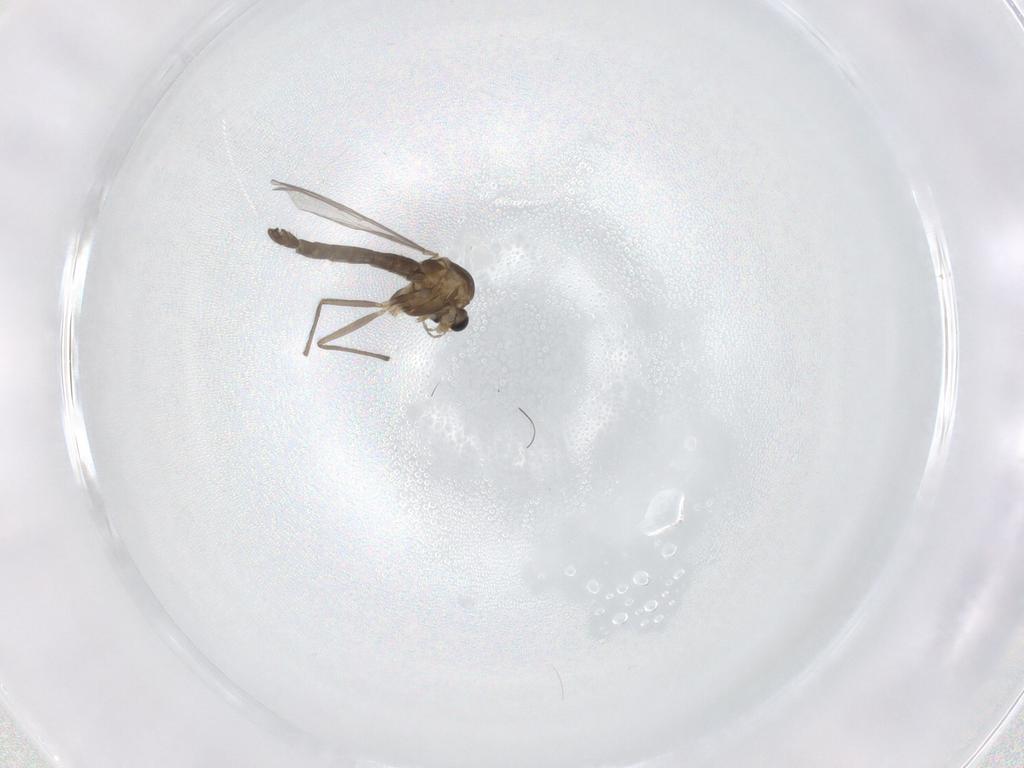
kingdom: Animalia
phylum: Arthropoda
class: Insecta
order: Diptera
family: Chironomidae
